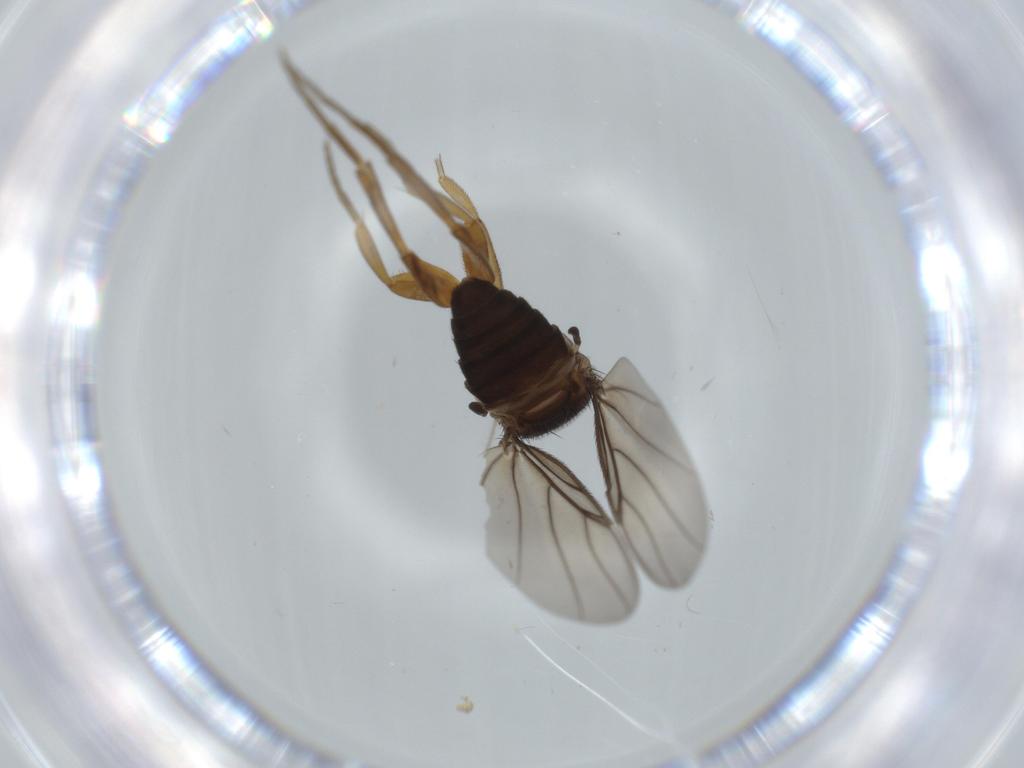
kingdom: Animalia
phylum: Arthropoda
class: Insecta
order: Diptera
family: Phoridae
